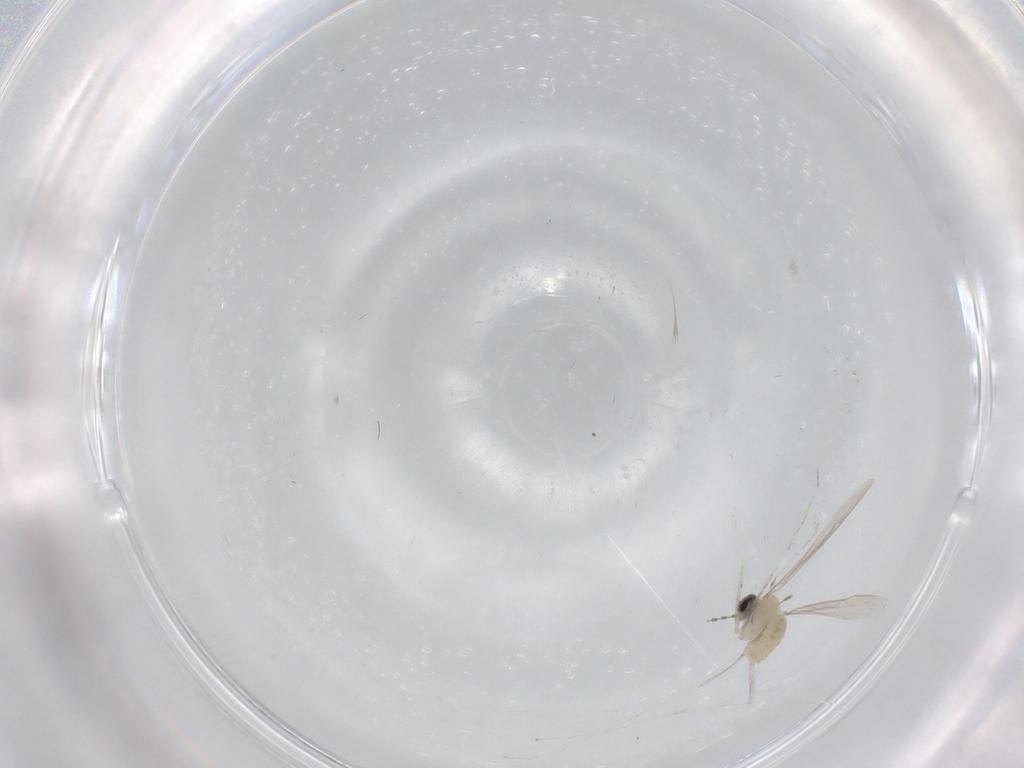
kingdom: Animalia
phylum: Arthropoda
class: Insecta
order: Diptera
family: Cecidomyiidae
